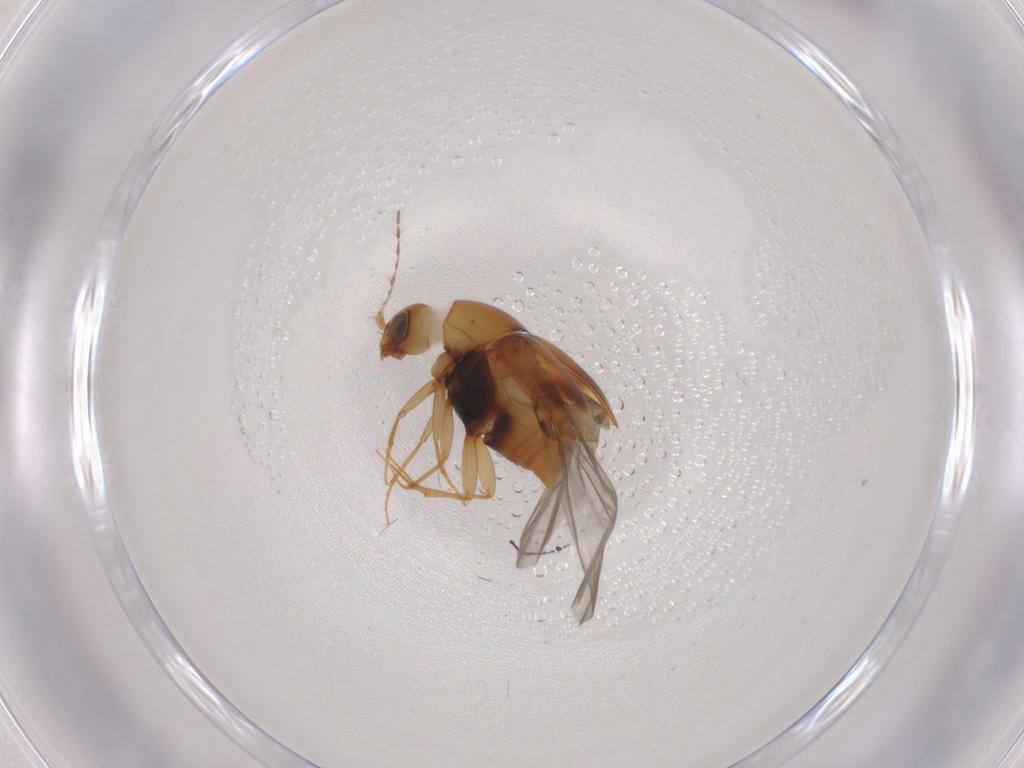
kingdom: Animalia
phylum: Arthropoda
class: Insecta
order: Coleoptera
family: Staphylinidae
